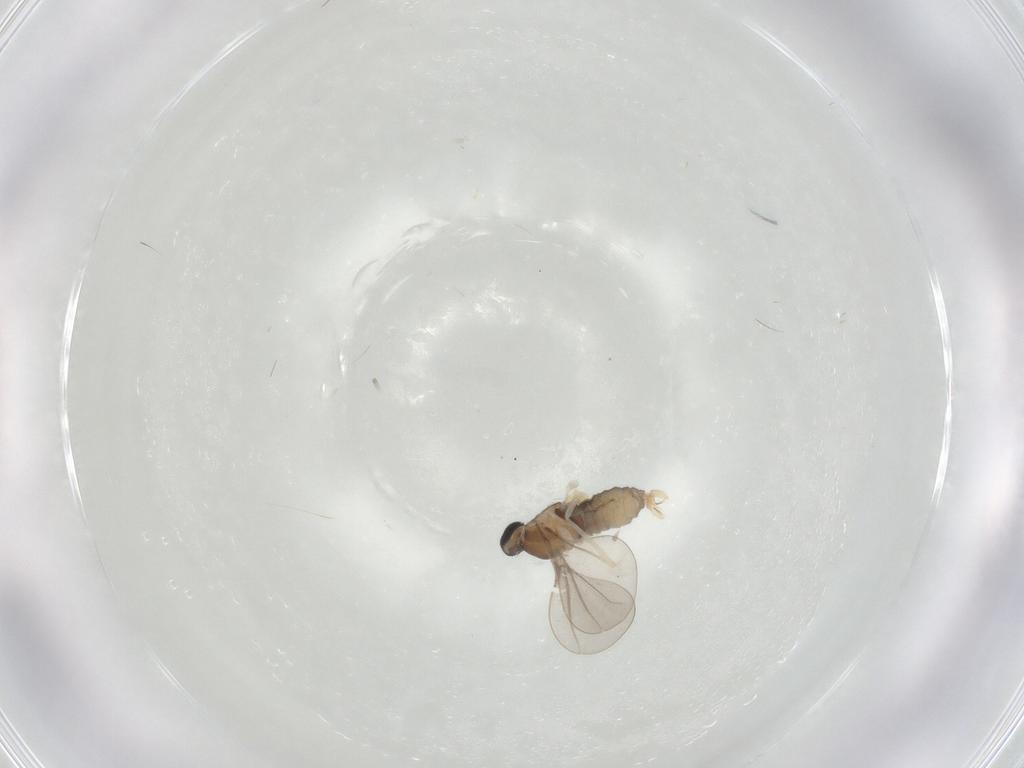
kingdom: Animalia
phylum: Arthropoda
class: Insecta
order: Diptera
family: Cecidomyiidae
